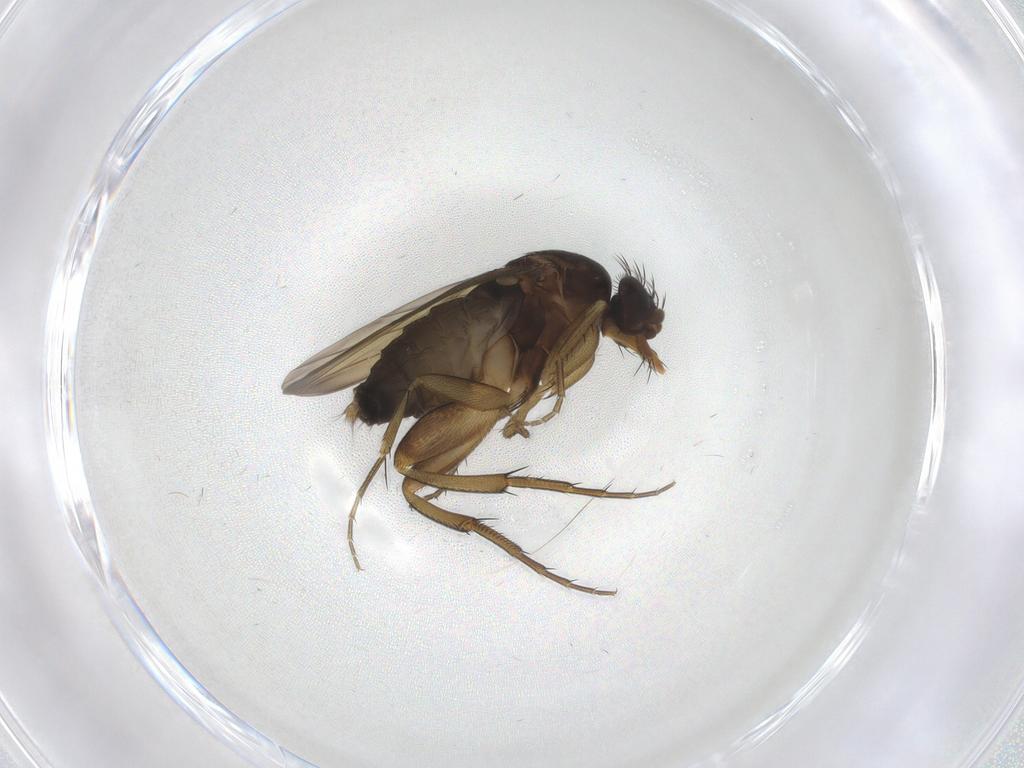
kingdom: Animalia
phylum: Arthropoda
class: Insecta
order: Diptera
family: Phoridae
